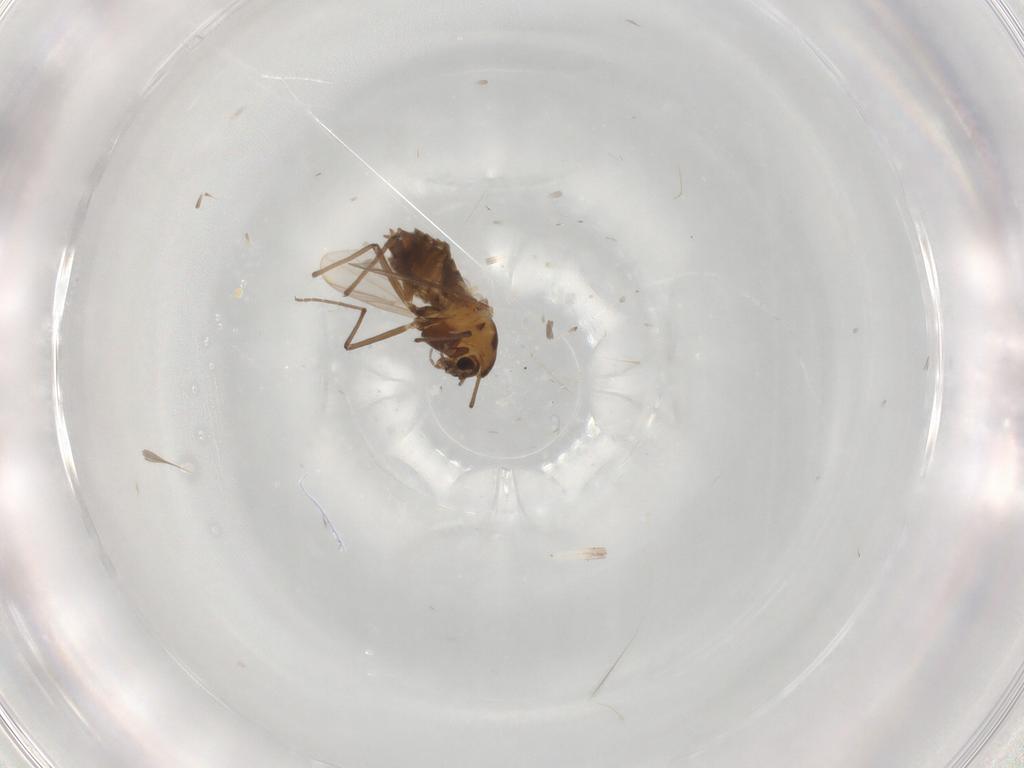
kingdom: Animalia
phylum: Arthropoda
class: Insecta
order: Diptera
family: Chironomidae
